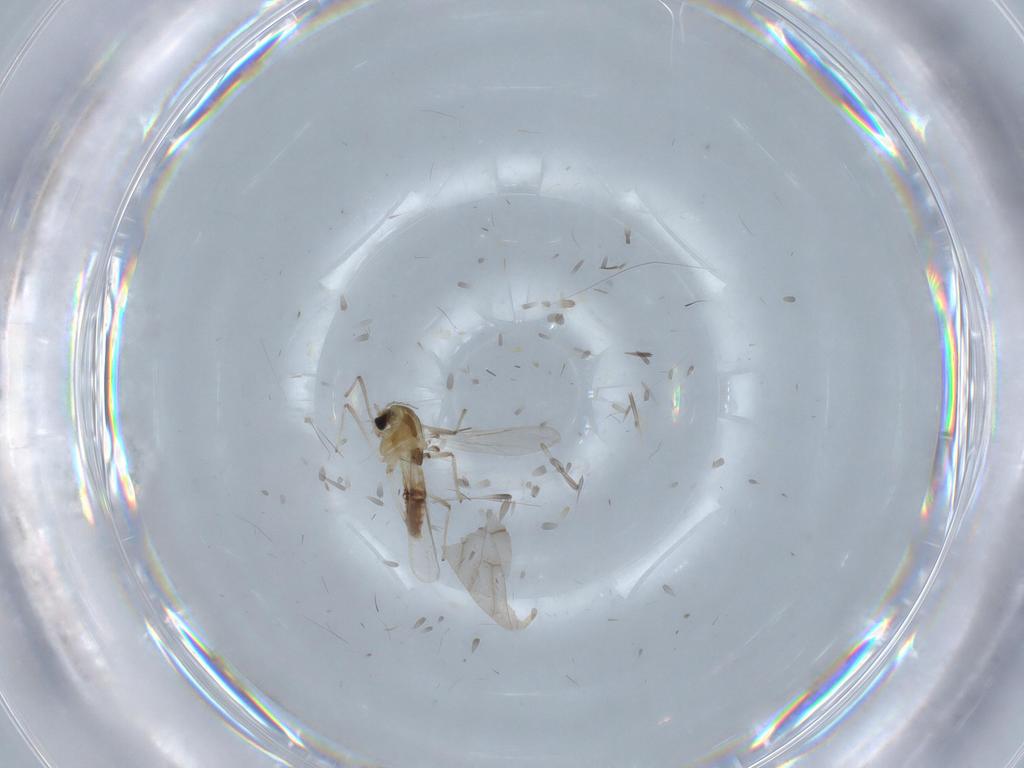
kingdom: Animalia
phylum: Arthropoda
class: Insecta
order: Diptera
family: Chironomidae
